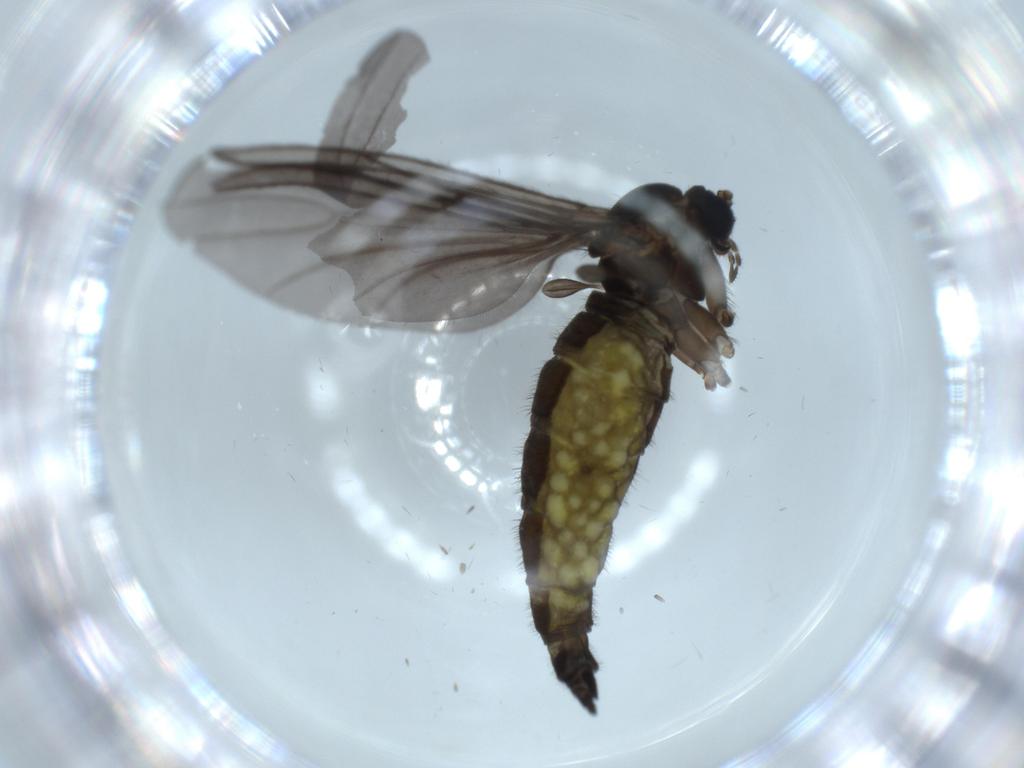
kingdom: Animalia
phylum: Arthropoda
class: Insecta
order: Diptera
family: Sciaridae
